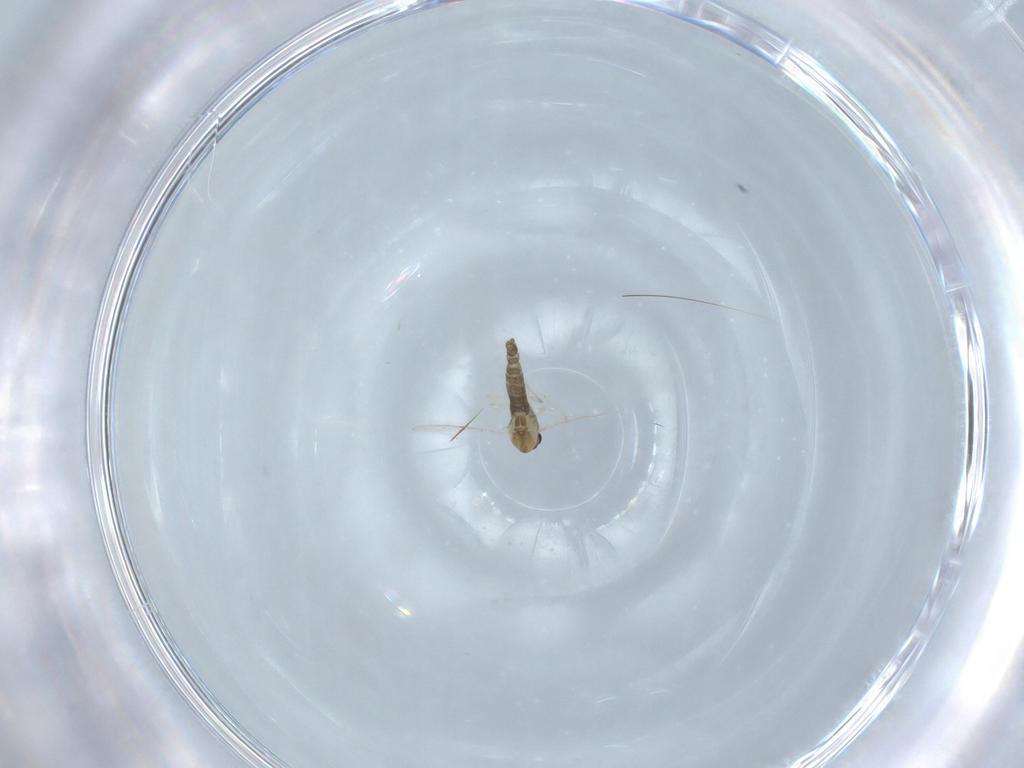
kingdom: Animalia
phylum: Arthropoda
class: Insecta
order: Diptera
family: Chironomidae
